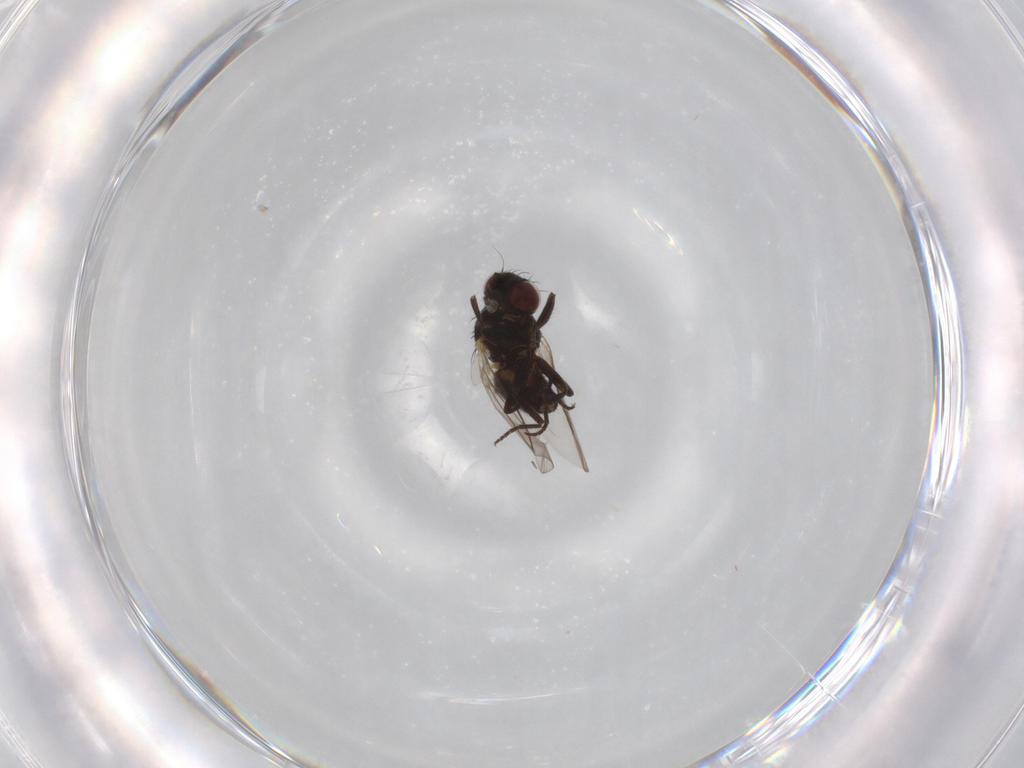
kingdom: Animalia
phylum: Arthropoda
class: Insecta
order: Diptera
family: Agromyzidae
